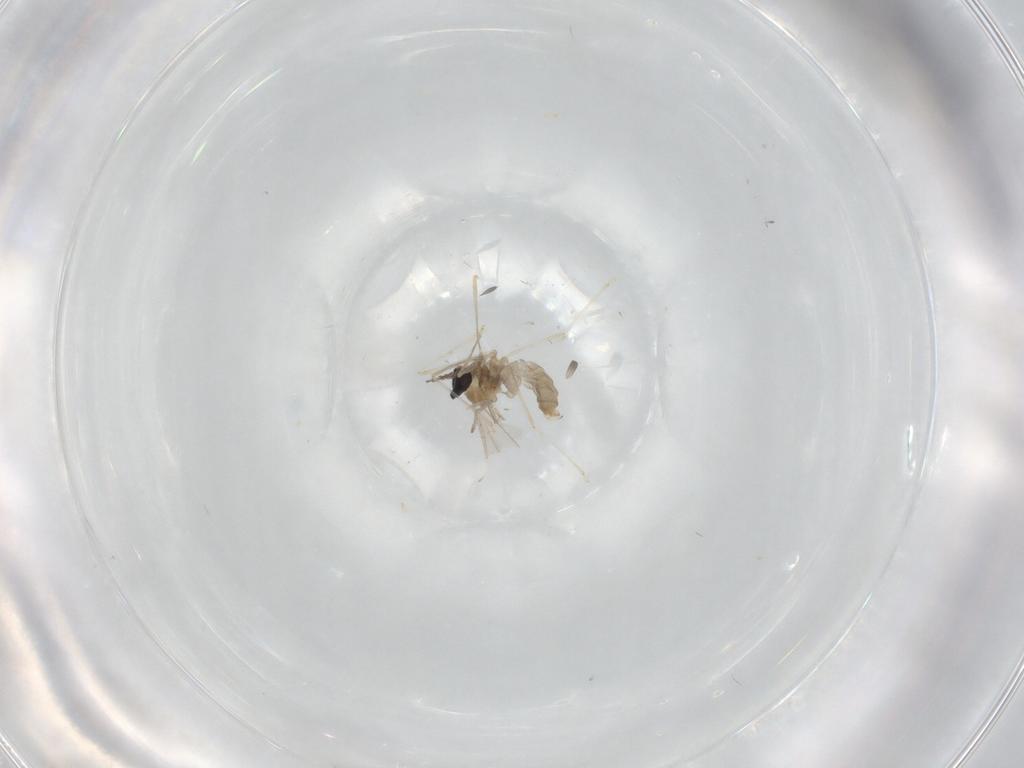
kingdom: Animalia
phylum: Arthropoda
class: Insecta
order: Diptera
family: Cecidomyiidae
